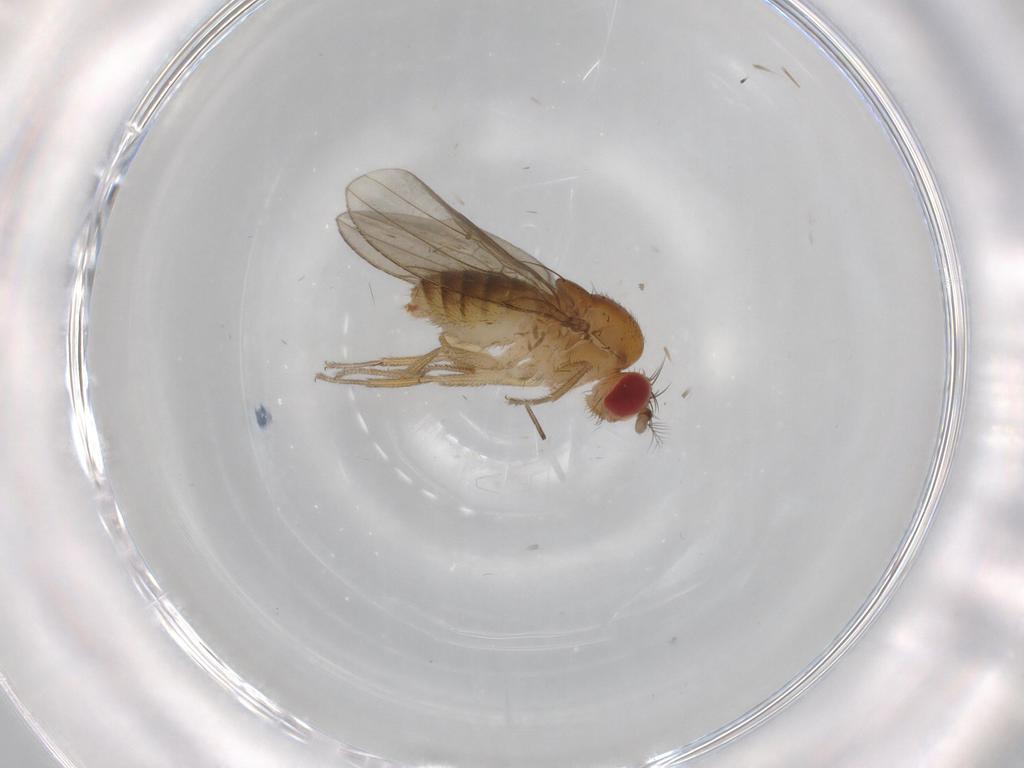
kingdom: Animalia
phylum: Arthropoda
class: Insecta
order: Diptera
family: Drosophilidae
